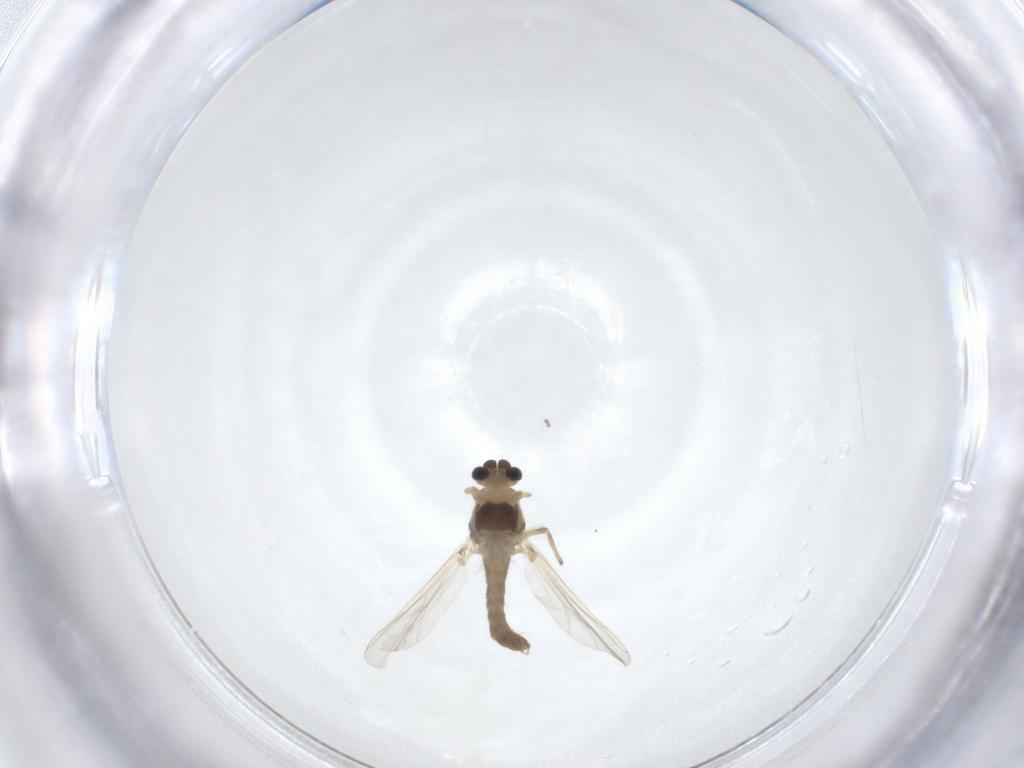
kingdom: Animalia
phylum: Arthropoda
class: Insecta
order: Diptera
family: Chironomidae
